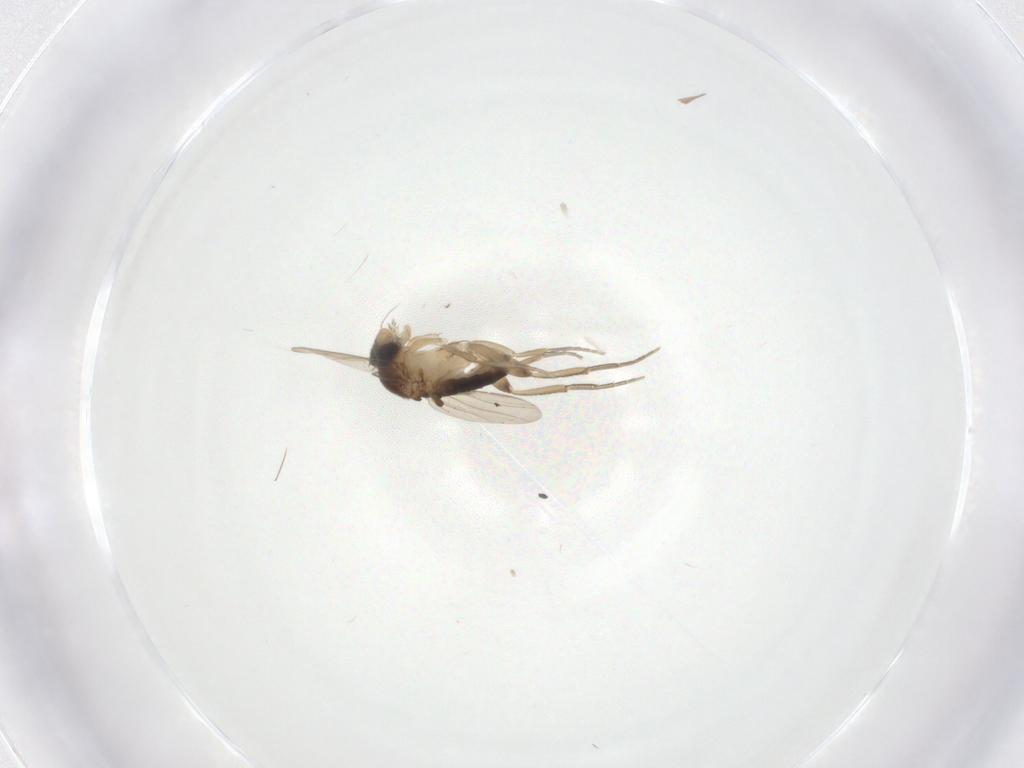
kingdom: Animalia
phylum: Arthropoda
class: Insecta
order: Diptera
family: Phoridae
